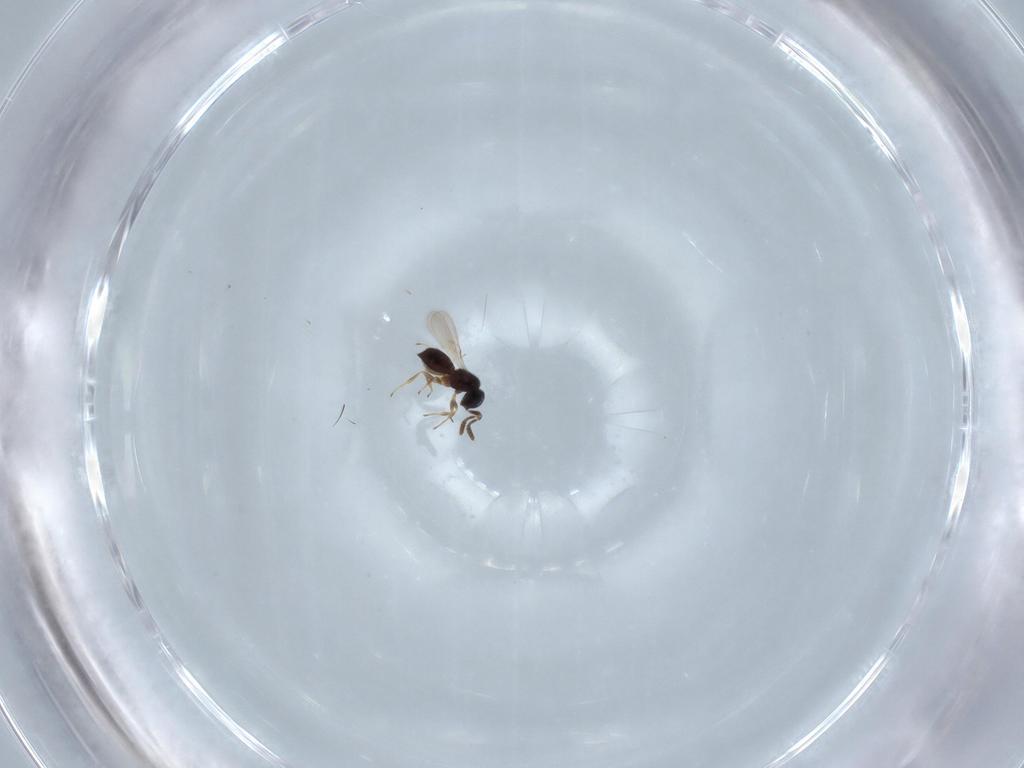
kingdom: Animalia
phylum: Arthropoda
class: Insecta
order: Hymenoptera
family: Scelionidae
